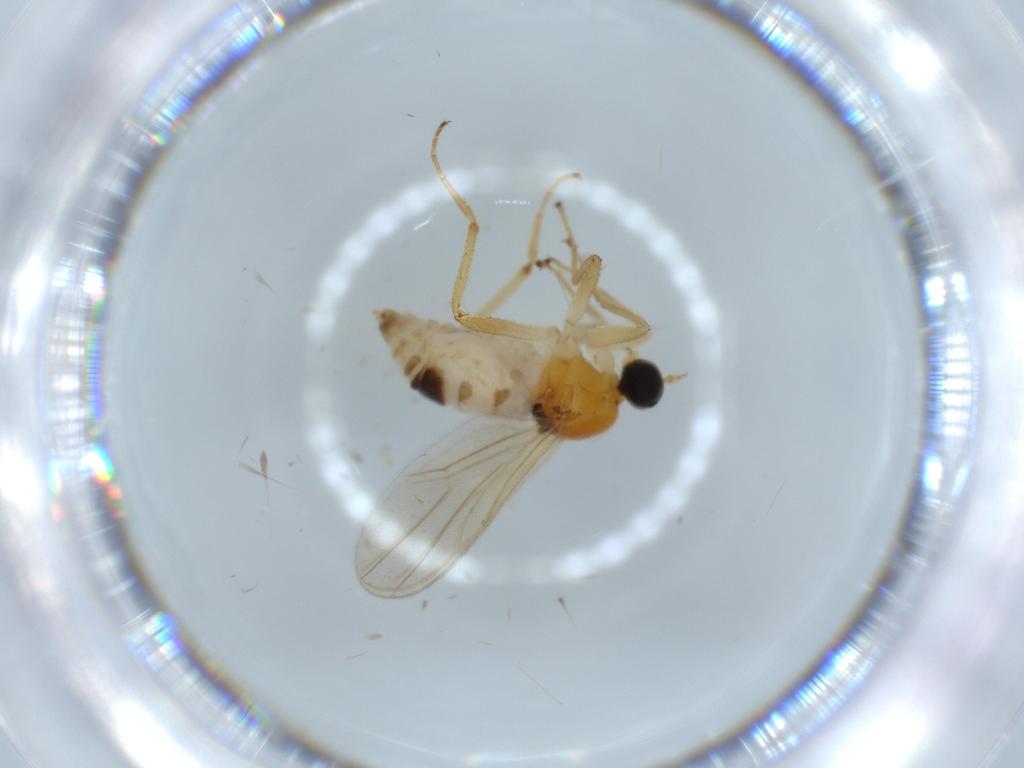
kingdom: Animalia
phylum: Arthropoda
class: Insecta
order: Diptera
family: Hybotidae
